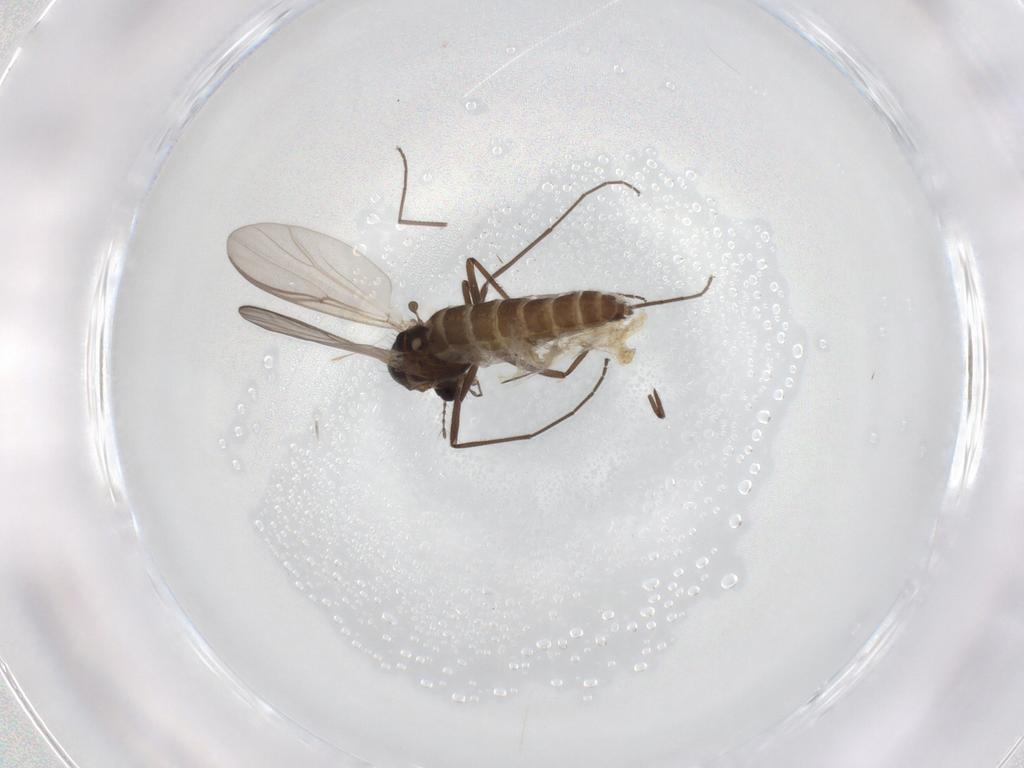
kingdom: Animalia
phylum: Arthropoda
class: Insecta
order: Diptera
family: Chironomidae
